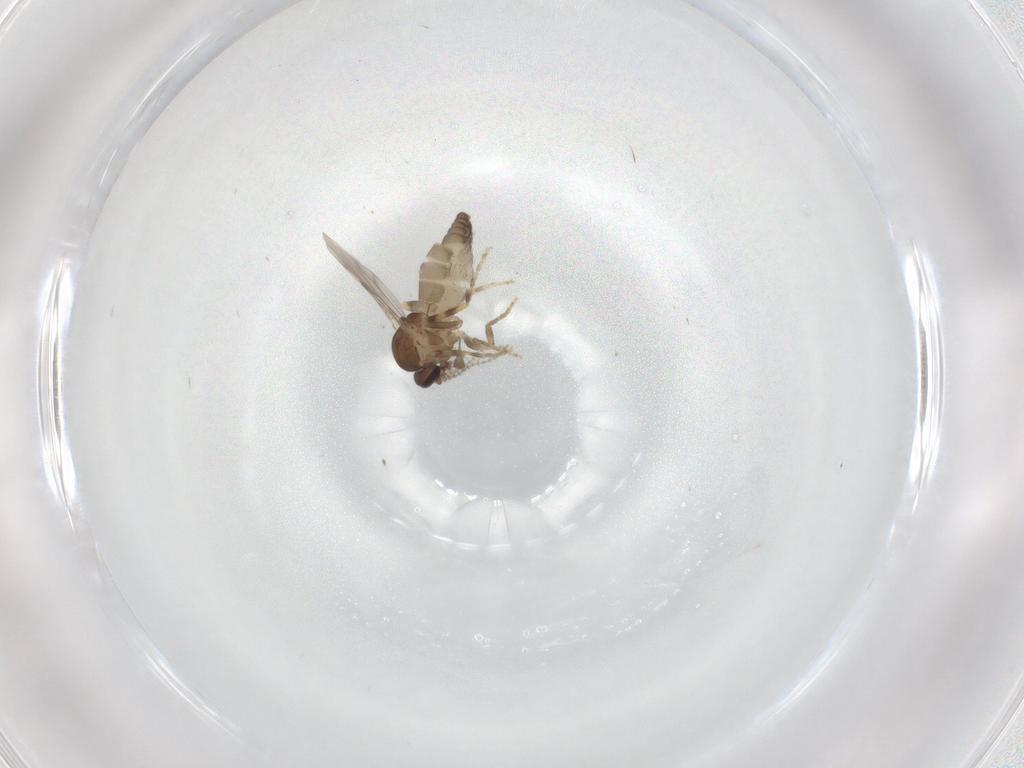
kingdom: Animalia
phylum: Arthropoda
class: Insecta
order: Diptera
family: Ceratopogonidae
